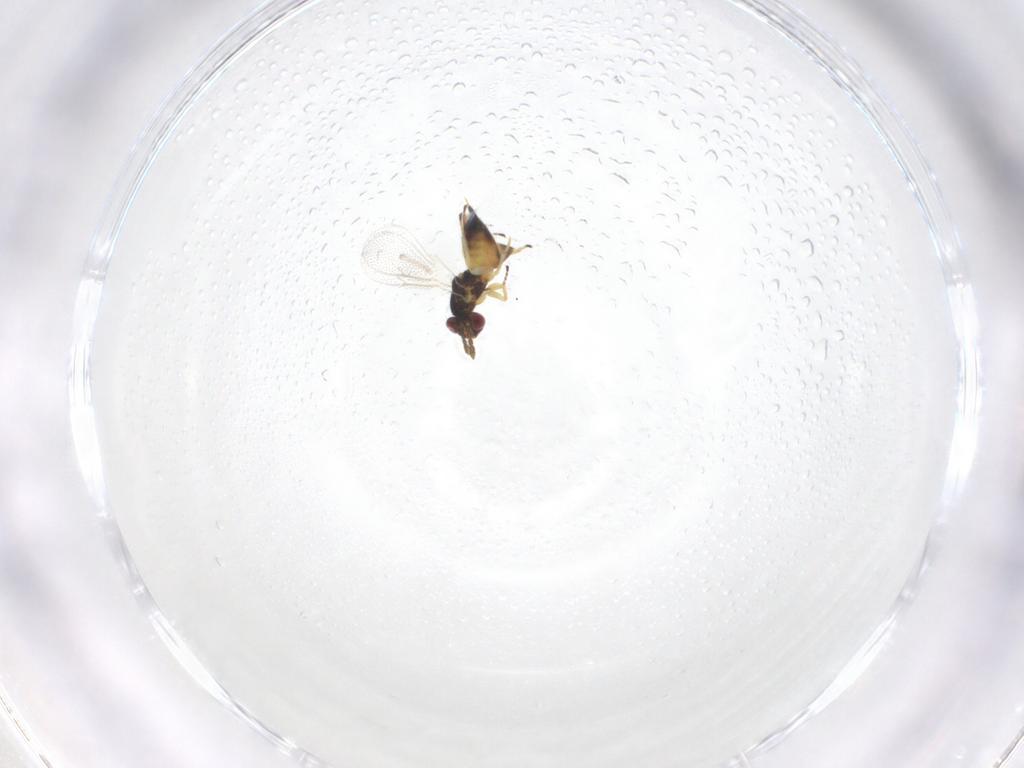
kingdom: Animalia
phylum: Arthropoda
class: Insecta
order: Hymenoptera
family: Eulophidae
